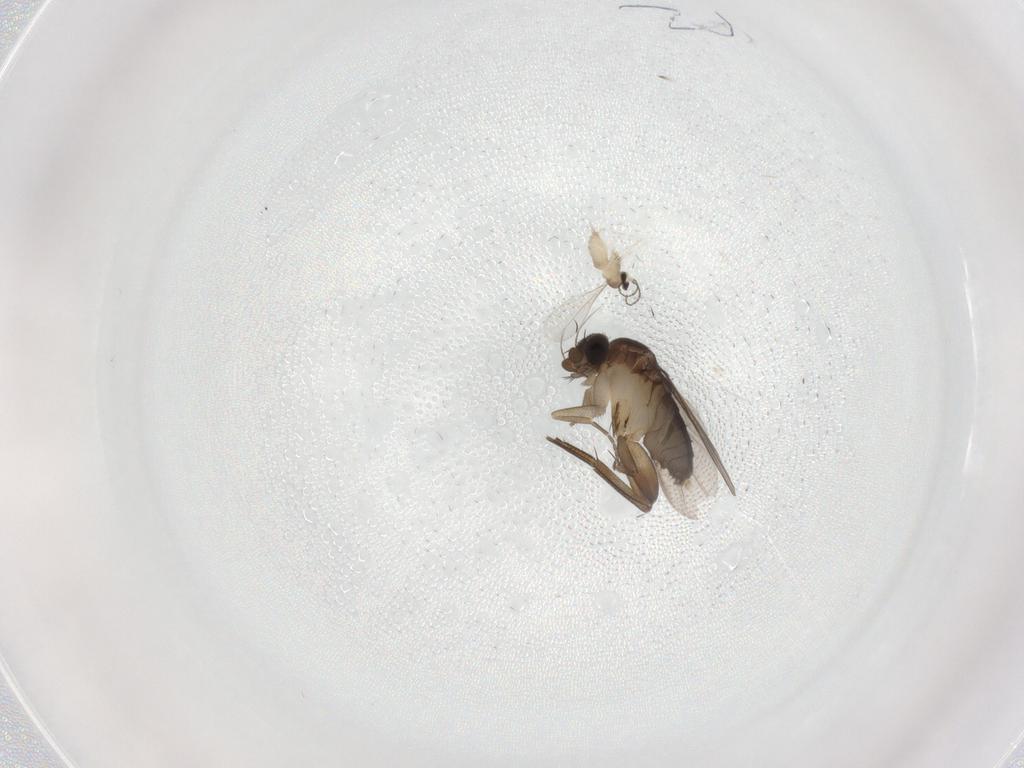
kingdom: Animalia
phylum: Arthropoda
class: Insecta
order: Diptera
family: Phoridae
